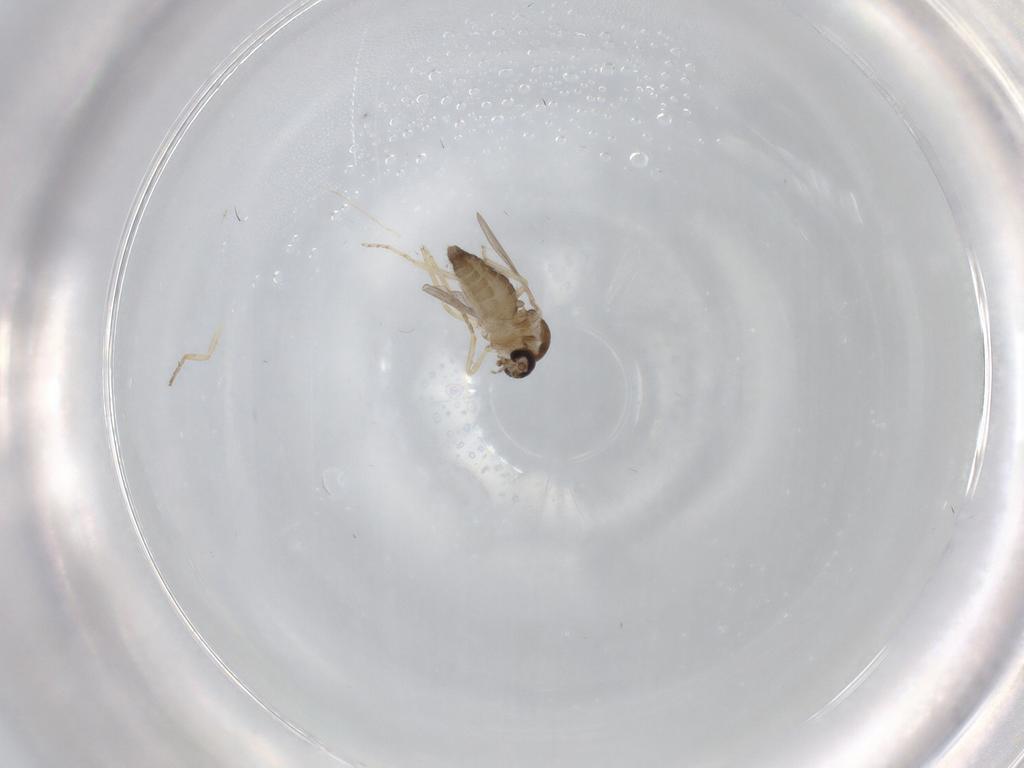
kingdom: Animalia
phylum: Arthropoda
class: Insecta
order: Diptera
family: Ceratopogonidae
